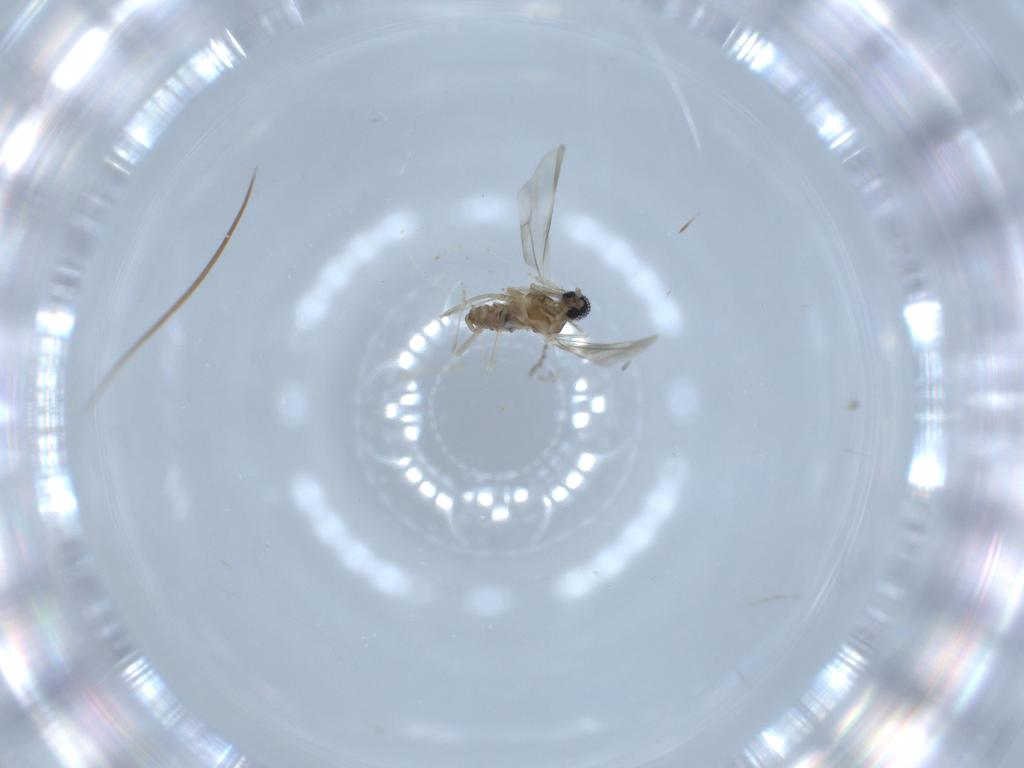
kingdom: Animalia
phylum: Arthropoda
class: Insecta
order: Diptera
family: Cecidomyiidae
